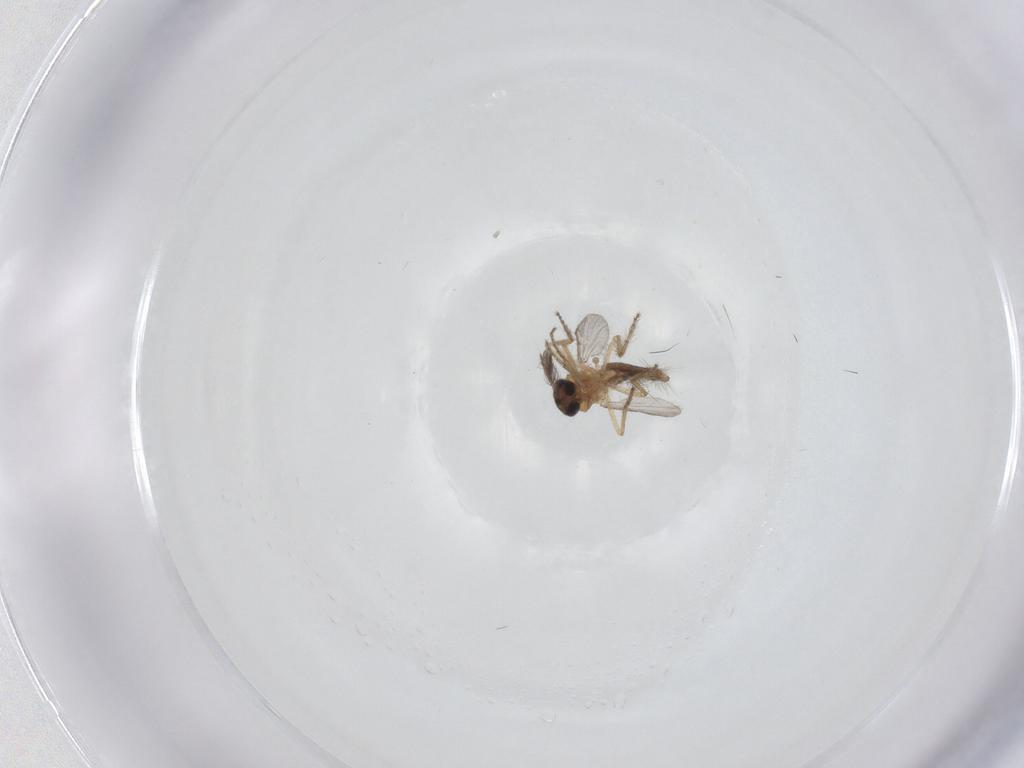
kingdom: Animalia
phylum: Arthropoda
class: Insecta
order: Diptera
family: Ceratopogonidae
